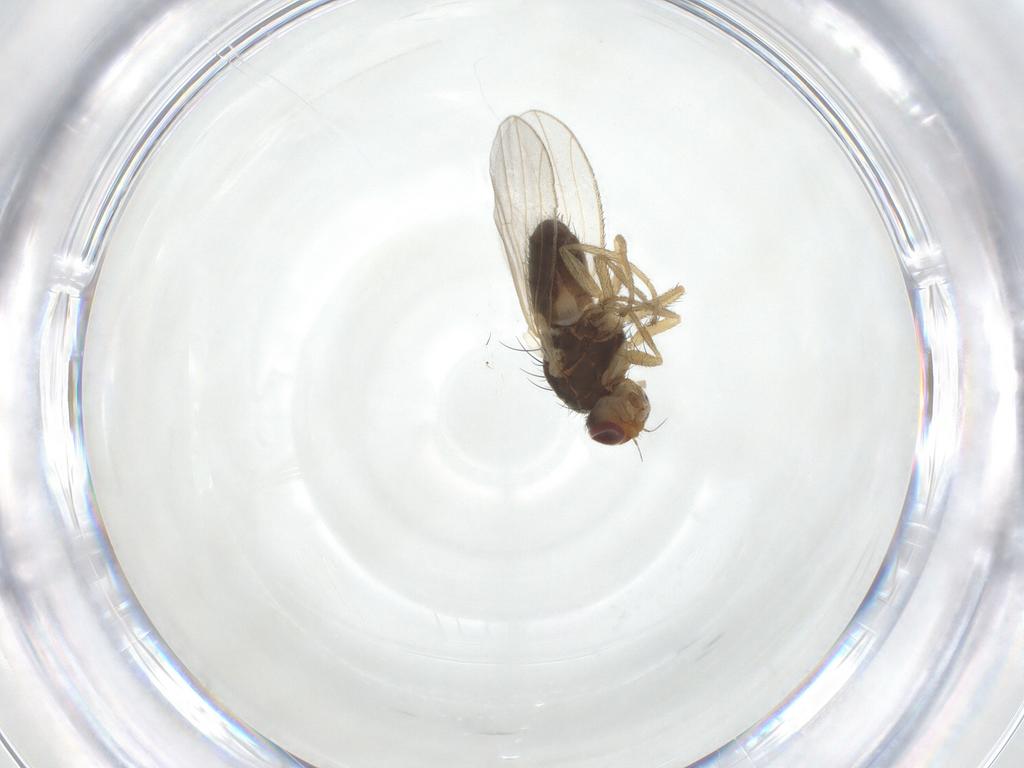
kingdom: Animalia
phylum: Arthropoda
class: Insecta
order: Diptera
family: Heleomyzidae
